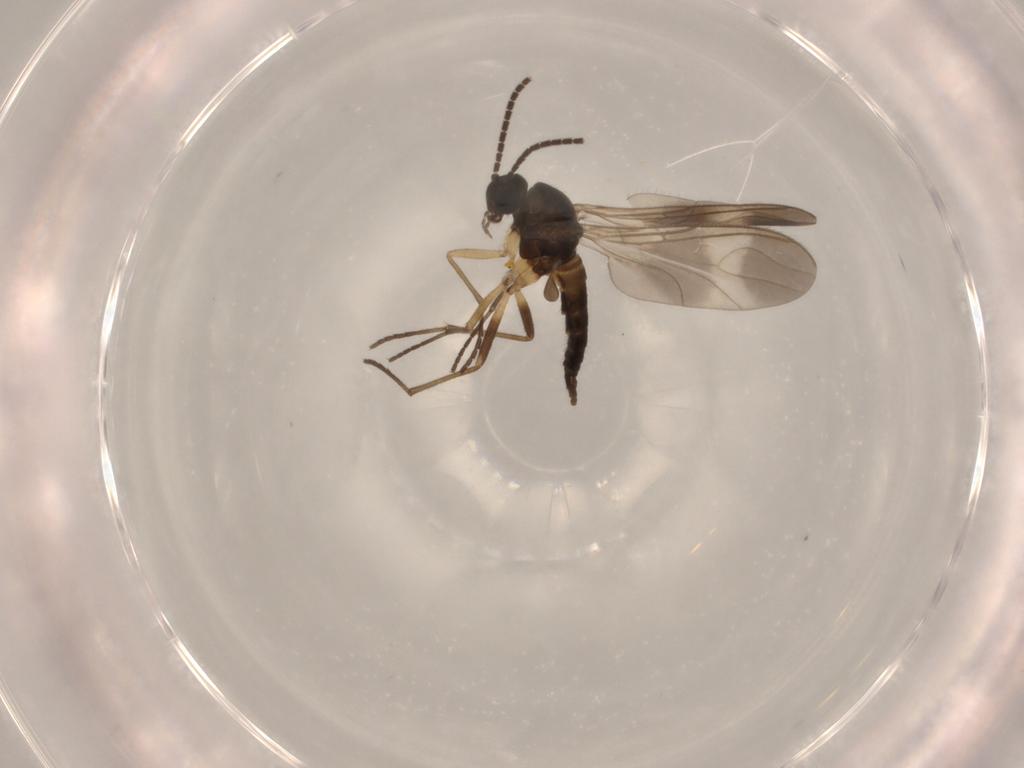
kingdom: Animalia
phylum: Arthropoda
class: Insecta
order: Diptera
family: Sciaridae
